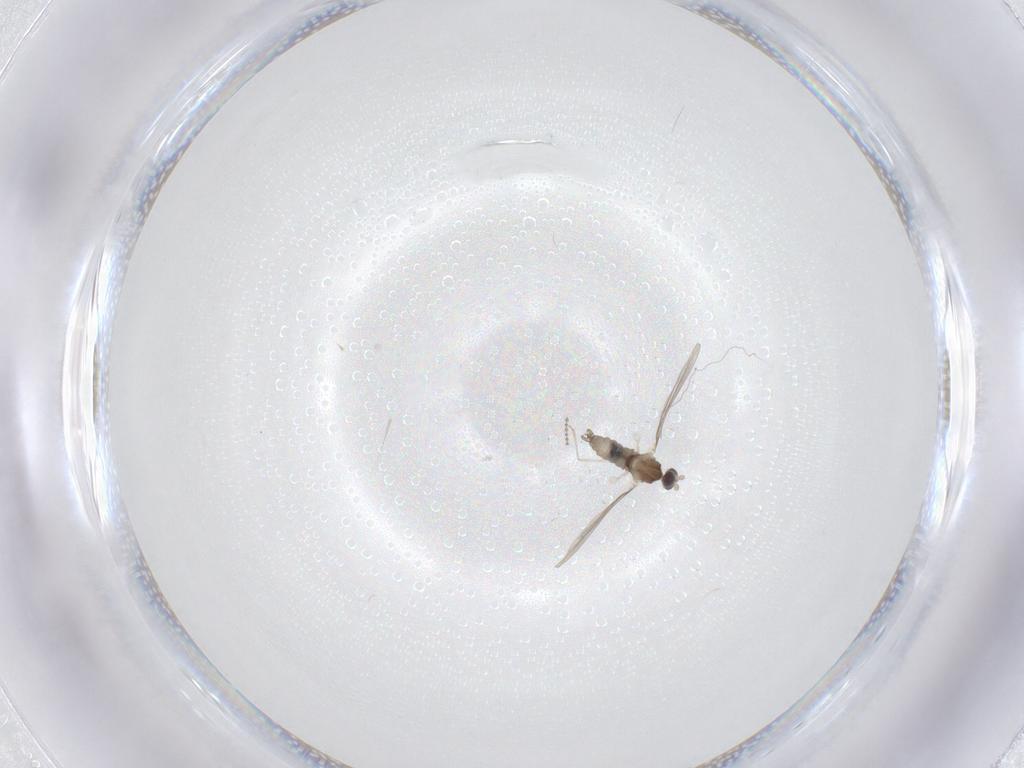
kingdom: Animalia
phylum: Arthropoda
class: Insecta
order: Diptera
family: Cecidomyiidae
